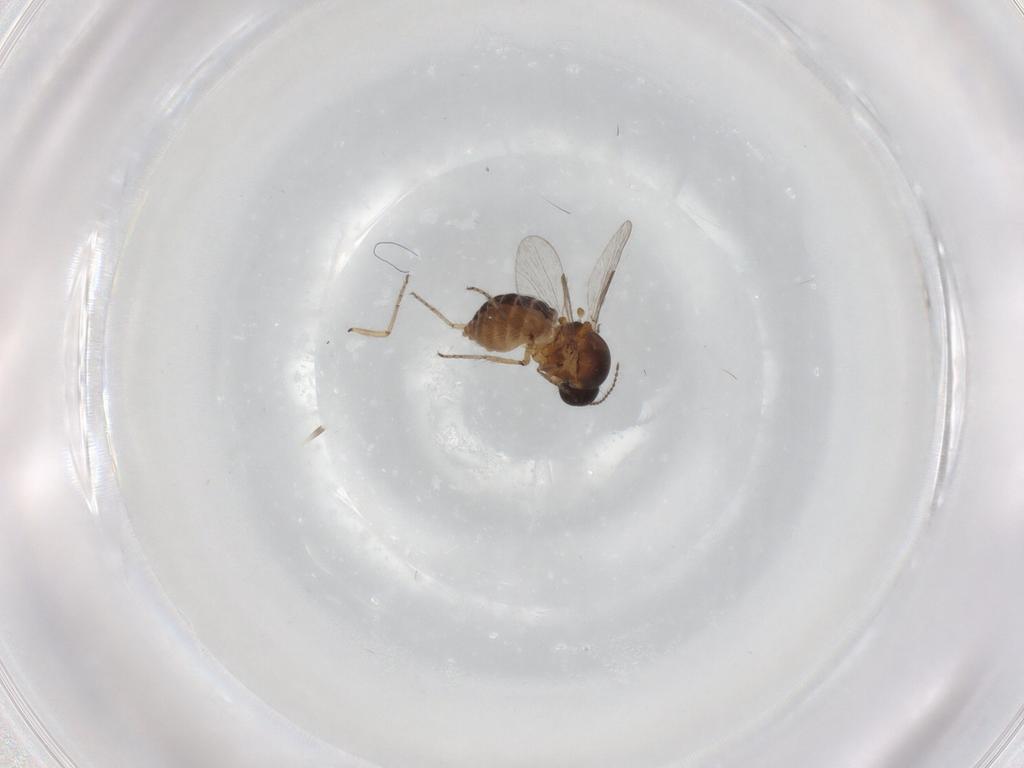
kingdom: Animalia
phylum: Arthropoda
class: Insecta
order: Diptera
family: Ceratopogonidae
